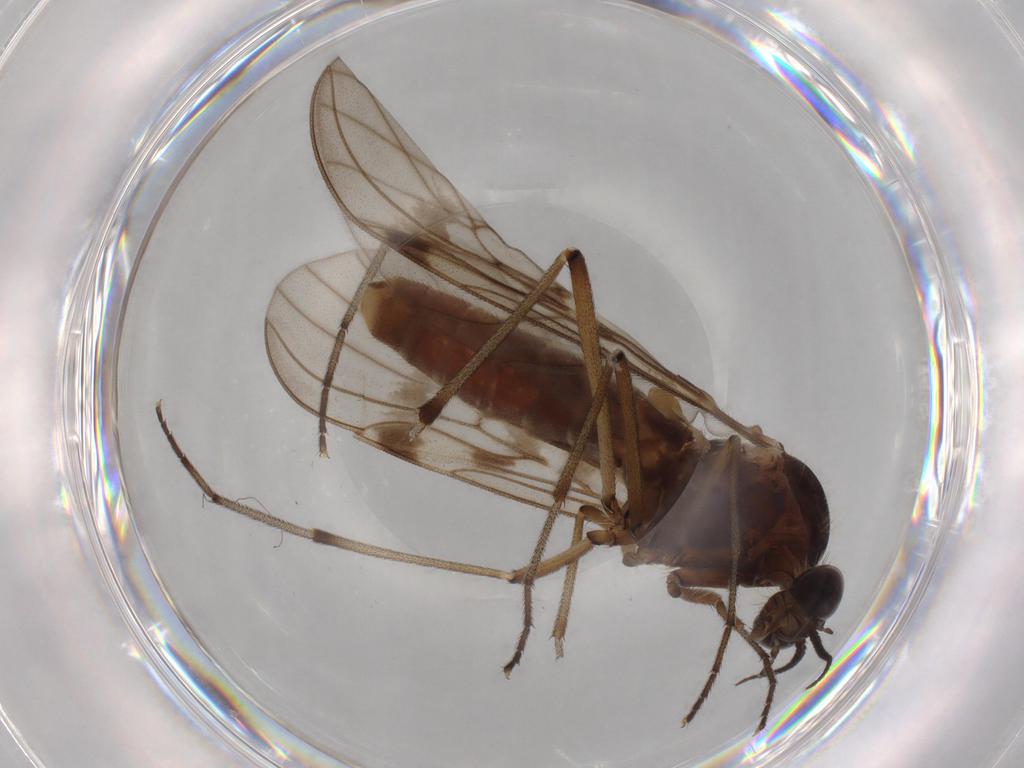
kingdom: Animalia
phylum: Arthropoda
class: Insecta
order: Diptera
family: Anisopodidae
